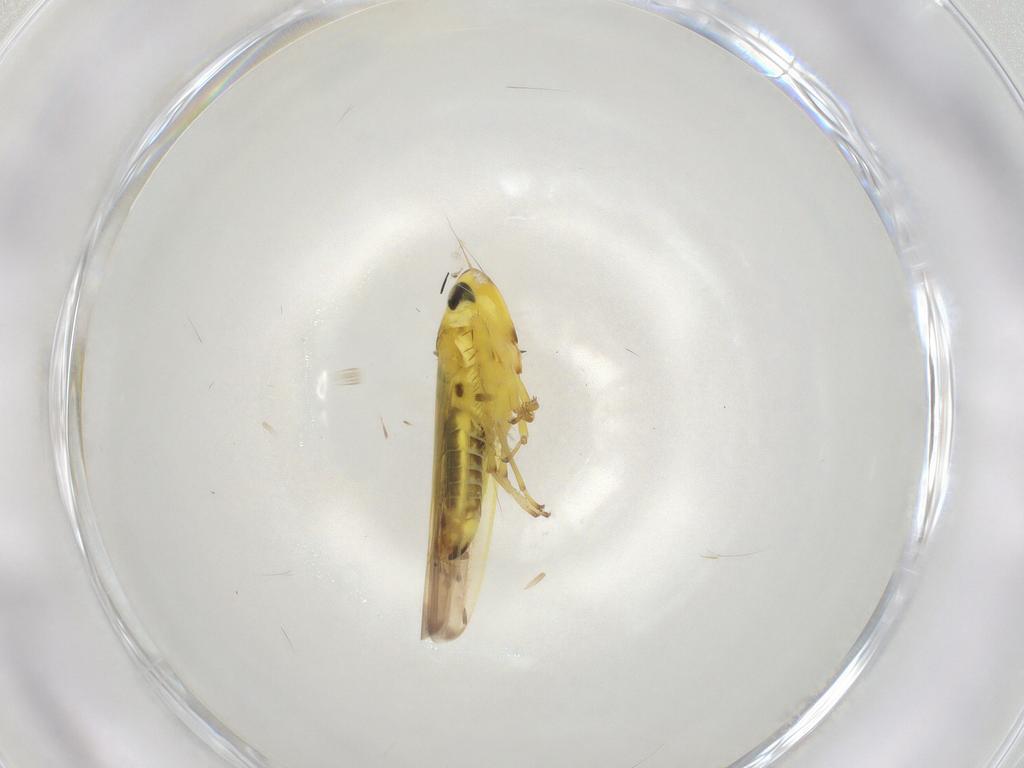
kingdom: Animalia
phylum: Arthropoda
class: Insecta
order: Hemiptera
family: Cicadellidae
